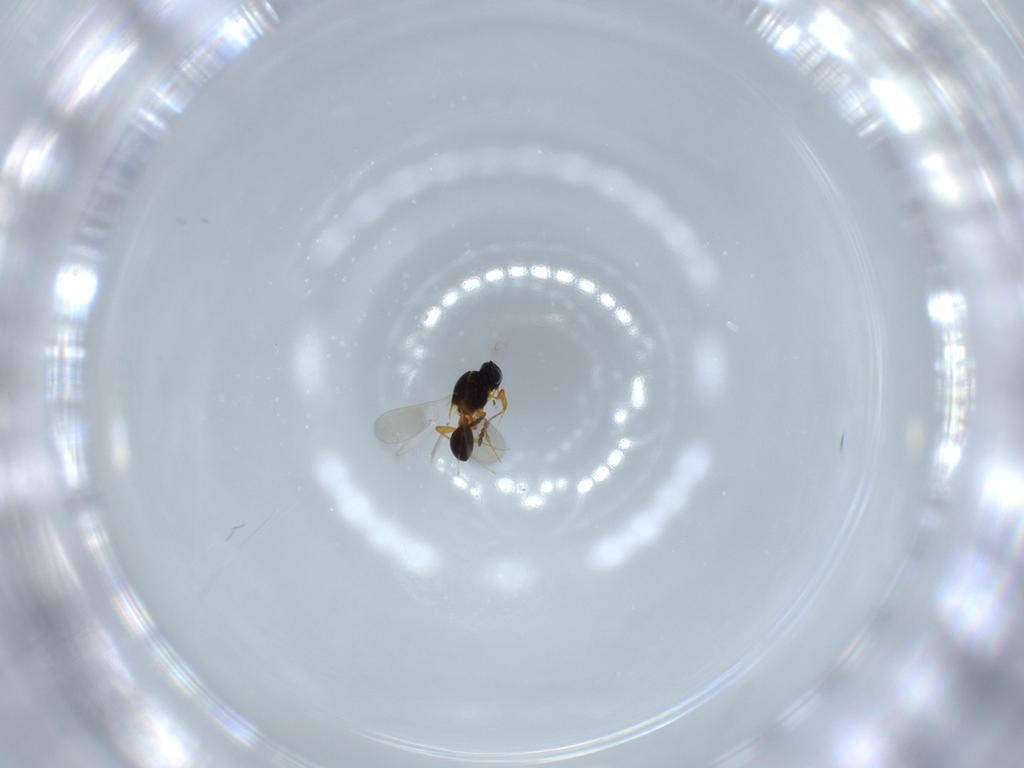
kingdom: Animalia
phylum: Arthropoda
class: Insecta
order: Hymenoptera
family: Platygastridae
